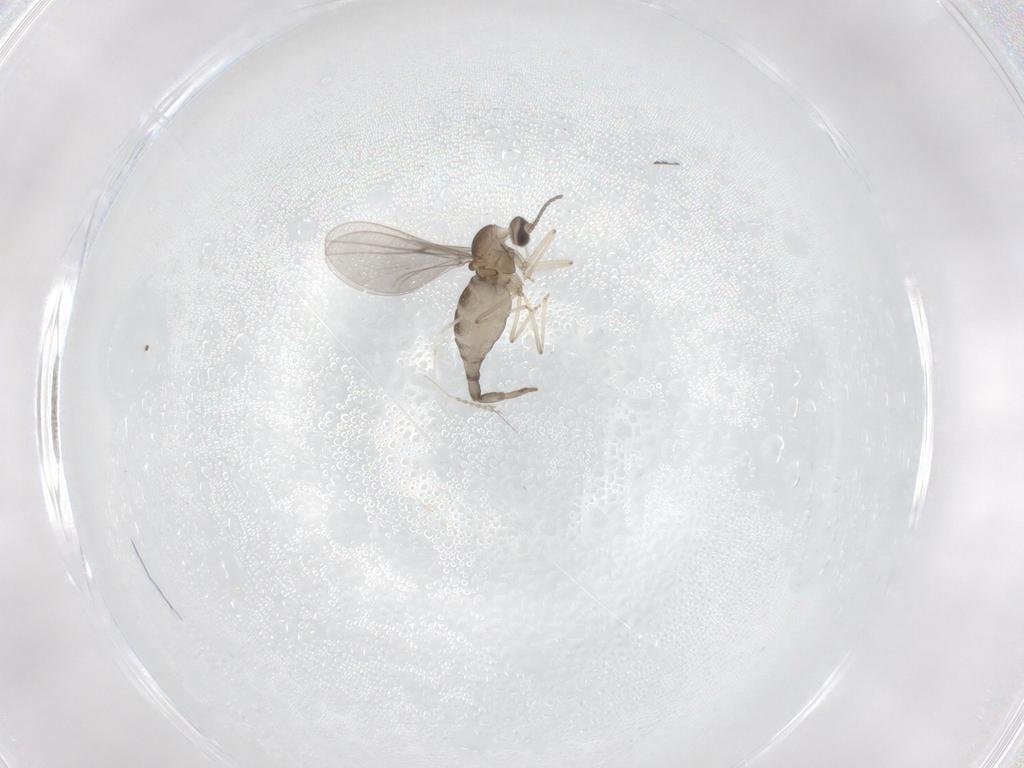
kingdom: Animalia
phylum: Arthropoda
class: Insecta
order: Diptera
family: Cecidomyiidae
